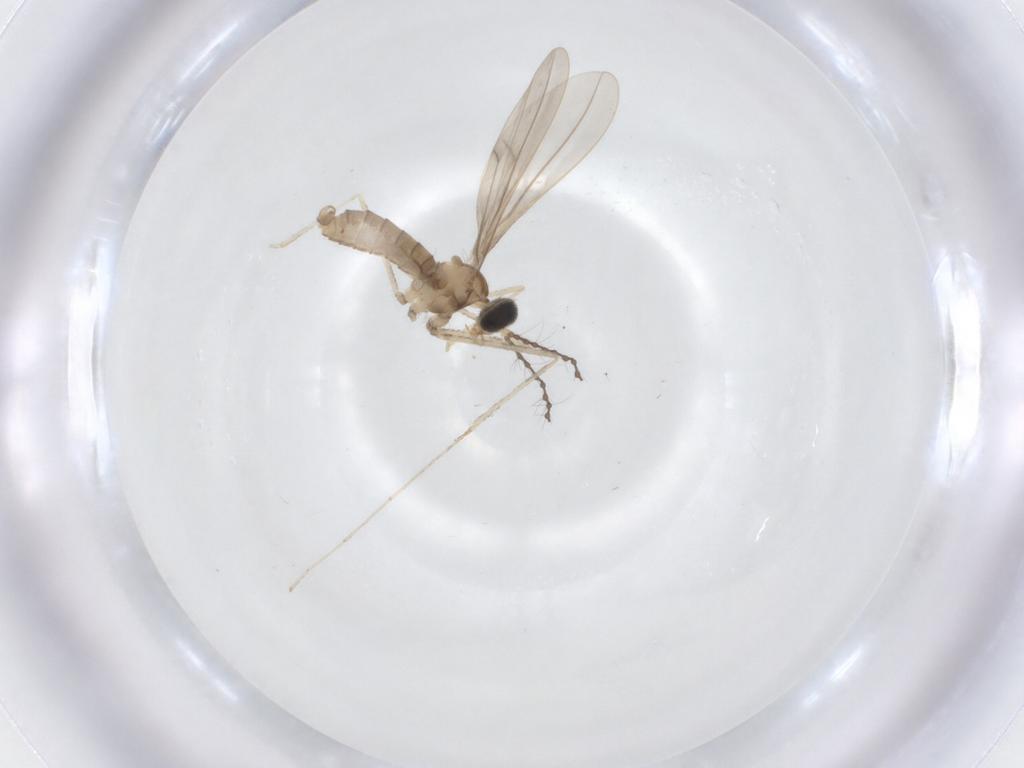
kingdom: Animalia
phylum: Arthropoda
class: Insecta
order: Diptera
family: Cecidomyiidae
